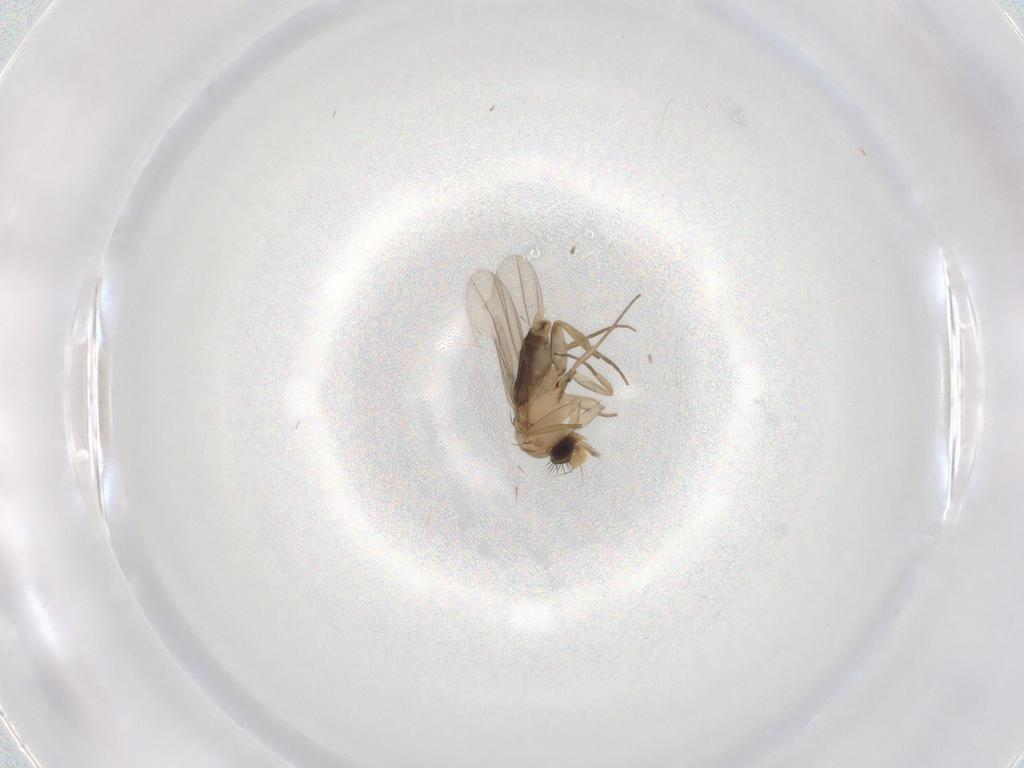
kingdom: Animalia
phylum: Arthropoda
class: Insecta
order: Diptera
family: Phoridae
